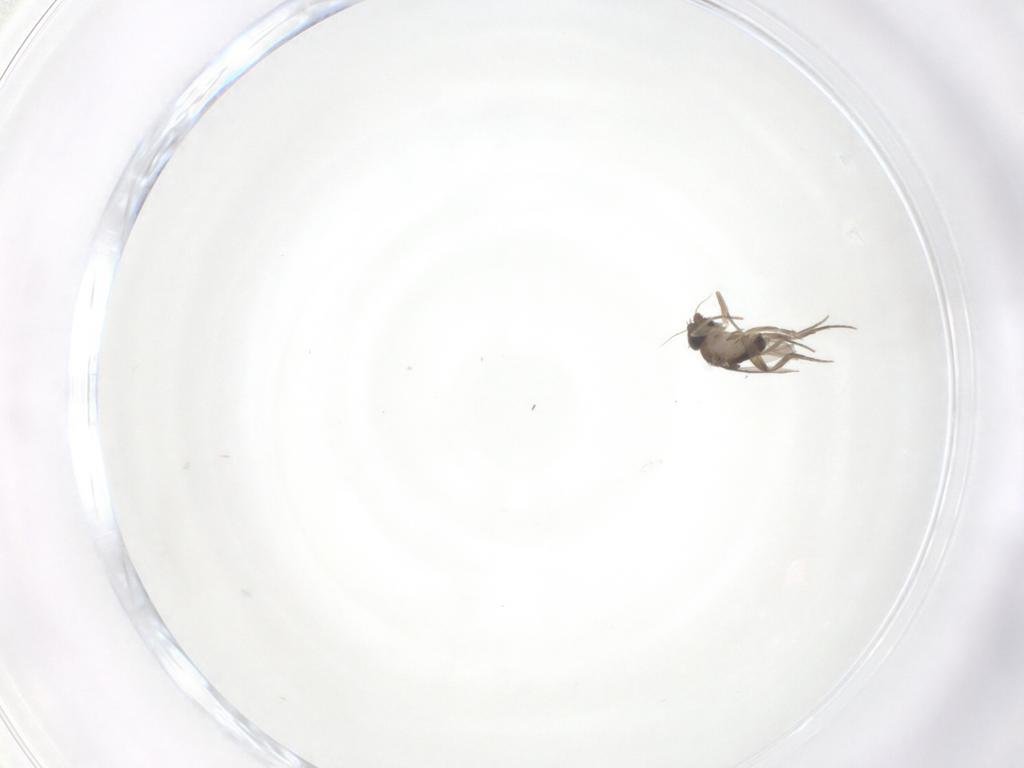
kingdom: Animalia
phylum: Arthropoda
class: Insecta
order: Diptera
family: Phoridae
